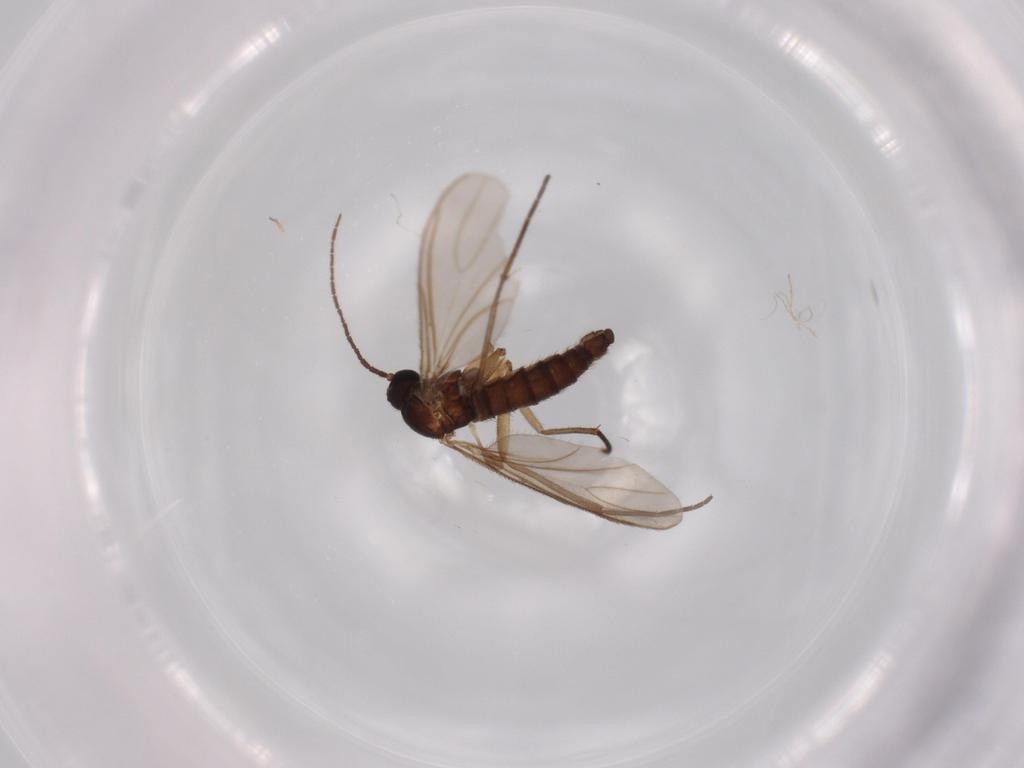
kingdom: Animalia
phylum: Arthropoda
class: Insecta
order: Diptera
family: Sciaridae
